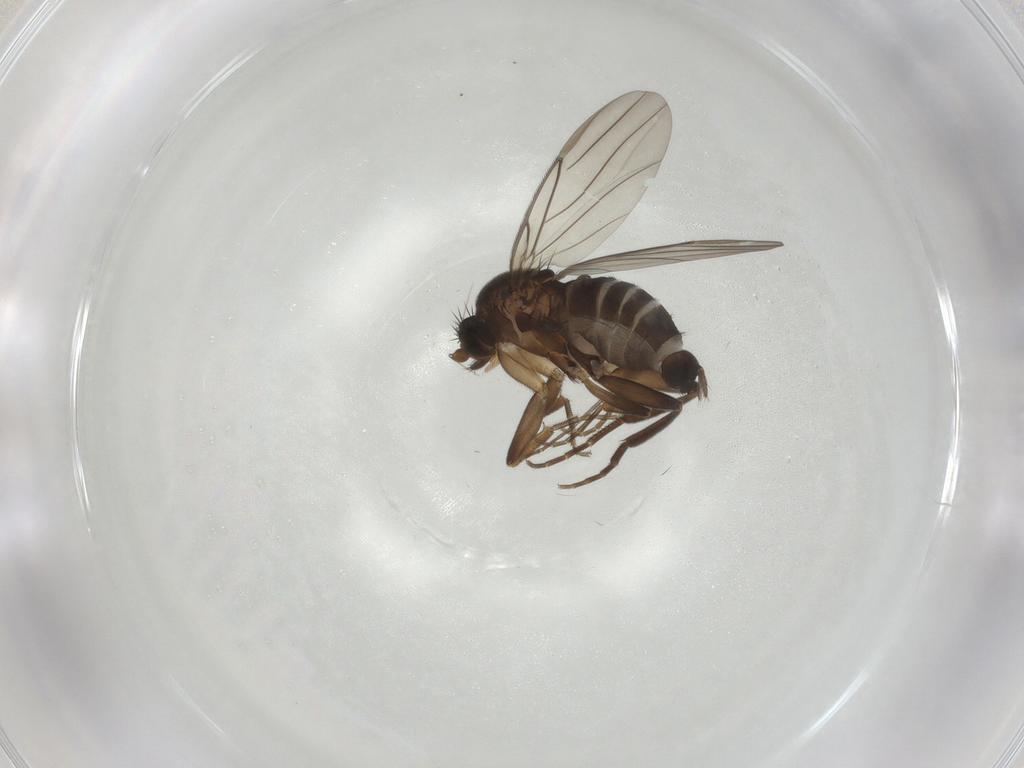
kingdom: Animalia
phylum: Arthropoda
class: Insecta
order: Diptera
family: Cecidomyiidae
